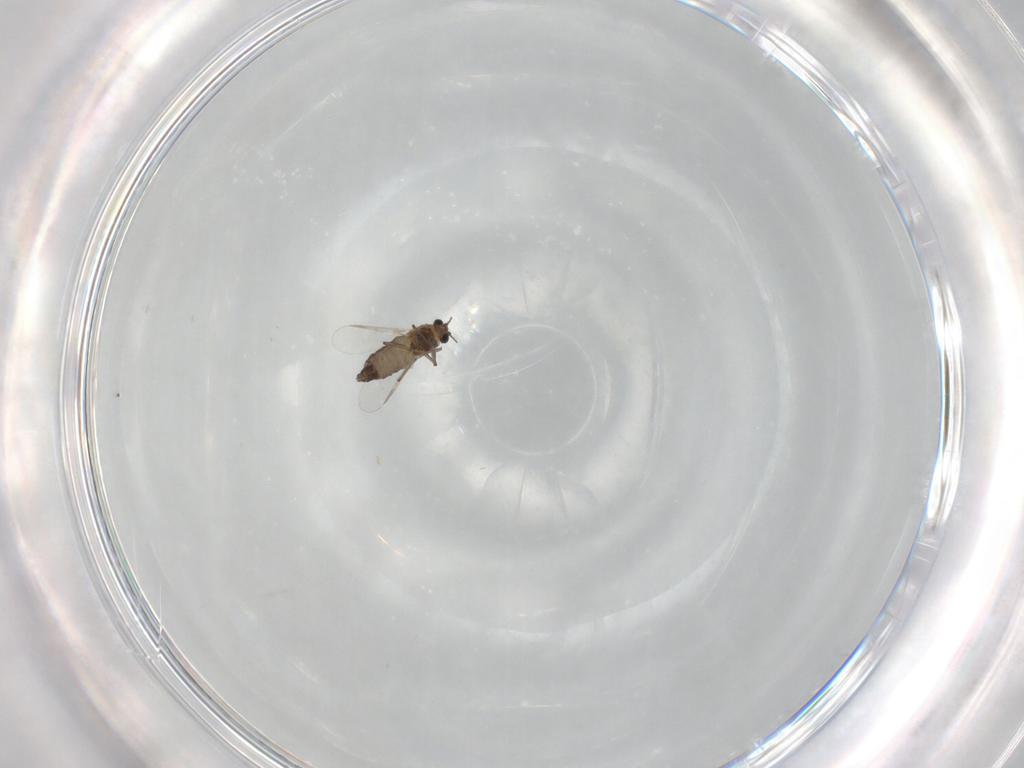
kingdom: Animalia
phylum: Arthropoda
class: Insecta
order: Diptera
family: Chironomidae
